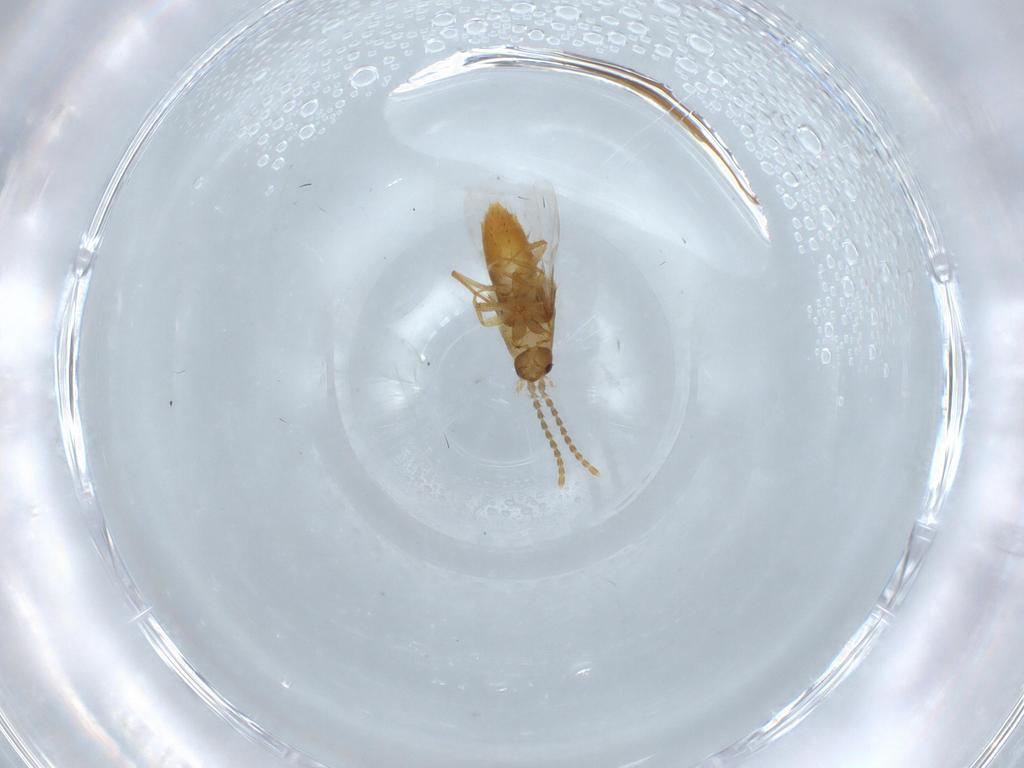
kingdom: Animalia
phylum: Arthropoda
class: Insecta
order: Coleoptera
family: Staphylinidae
